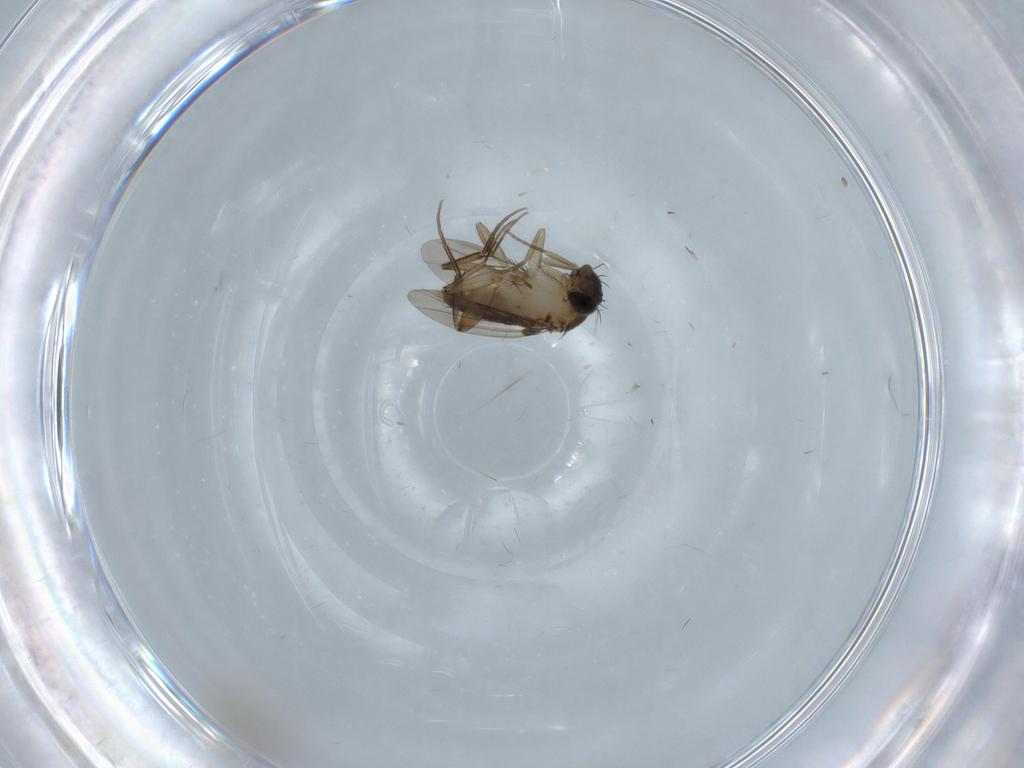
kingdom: Animalia
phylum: Arthropoda
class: Insecta
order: Diptera
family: Phoridae
